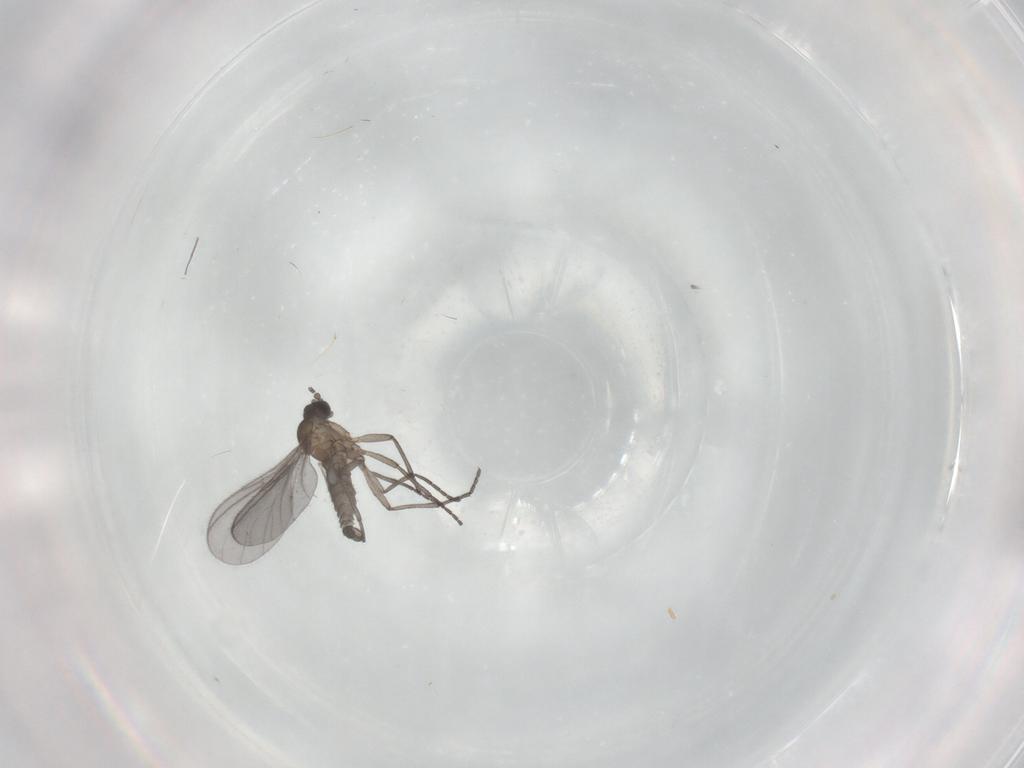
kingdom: Animalia
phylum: Arthropoda
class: Insecta
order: Diptera
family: Sciaridae
